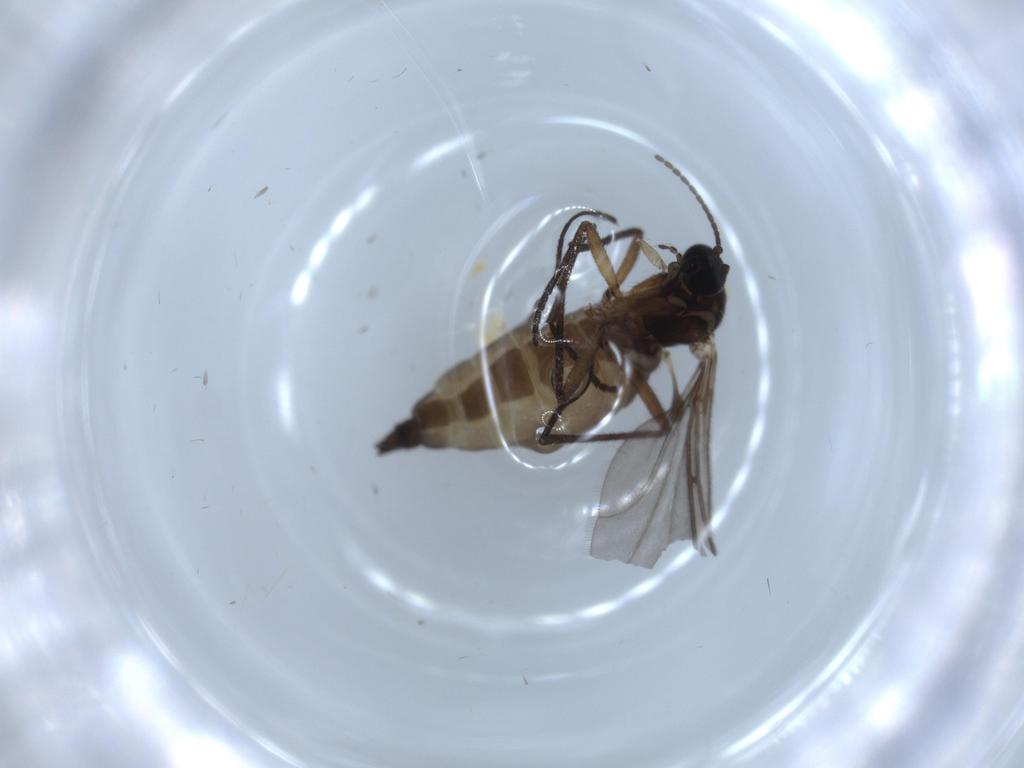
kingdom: Animalia
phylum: Arthropoda
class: Insecta
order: Diptera
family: Sciaridae
